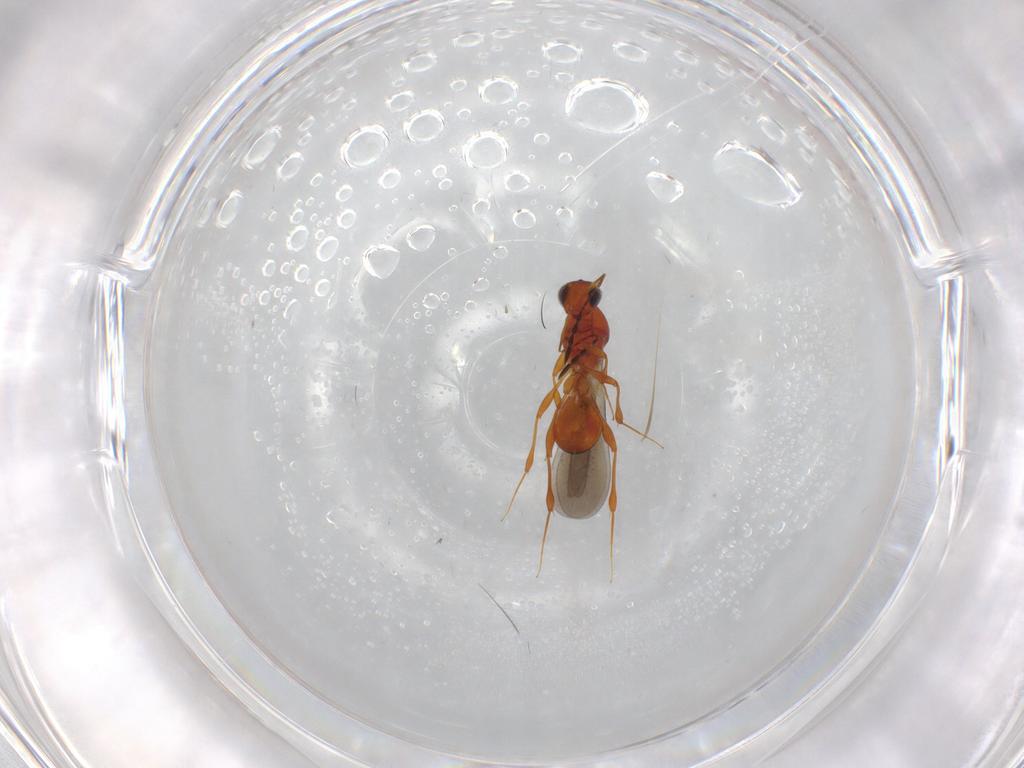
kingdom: Animalia
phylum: Arthropoda
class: Insecta
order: Hymenoptera
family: Platygastridae
